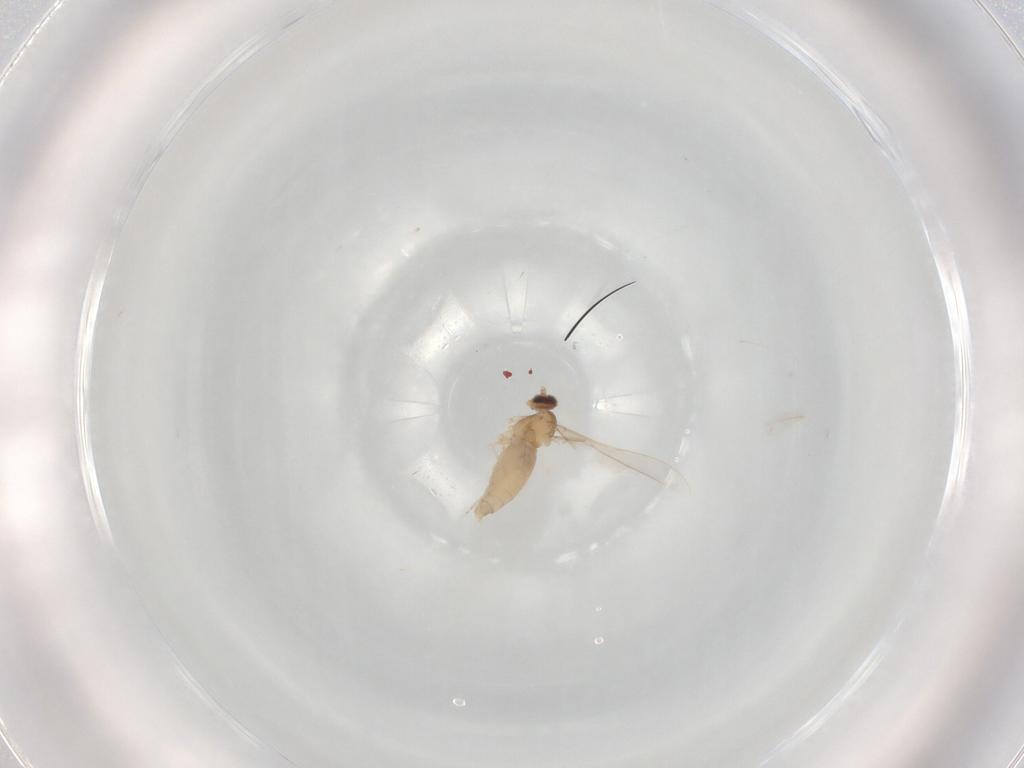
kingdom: Animalia
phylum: Arthropoda
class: Insecta
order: Diptera
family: Cecidomyiidae
